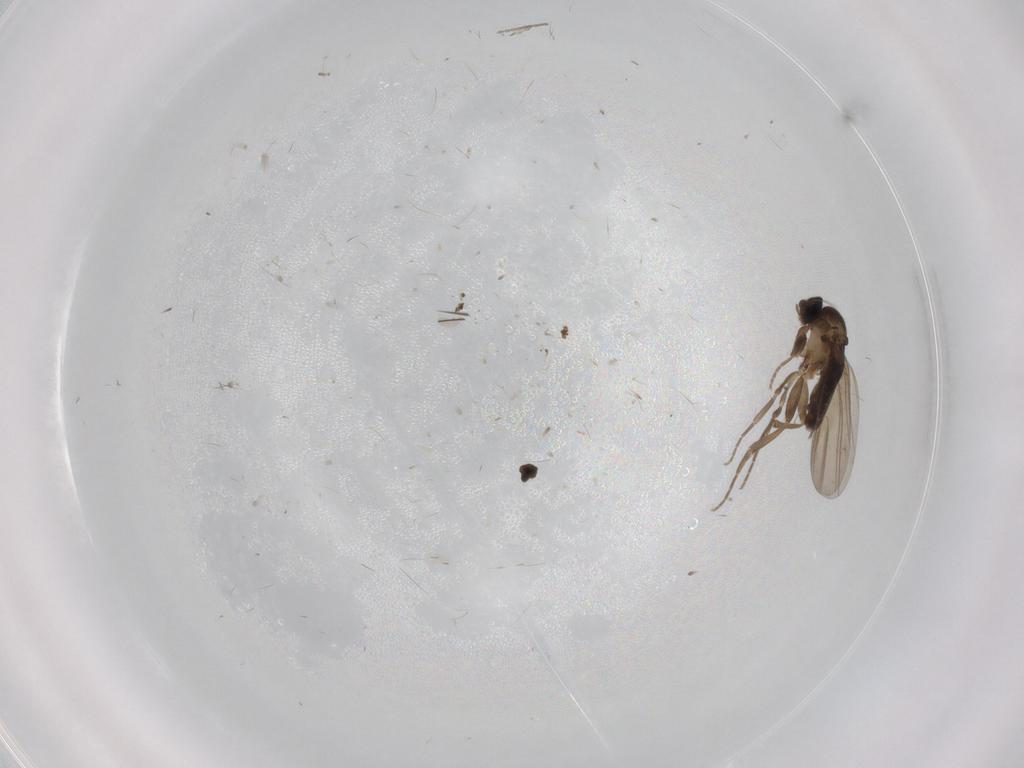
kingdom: Animalia
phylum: Arthropoda
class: Insecta
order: Diptera
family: Phoridae
